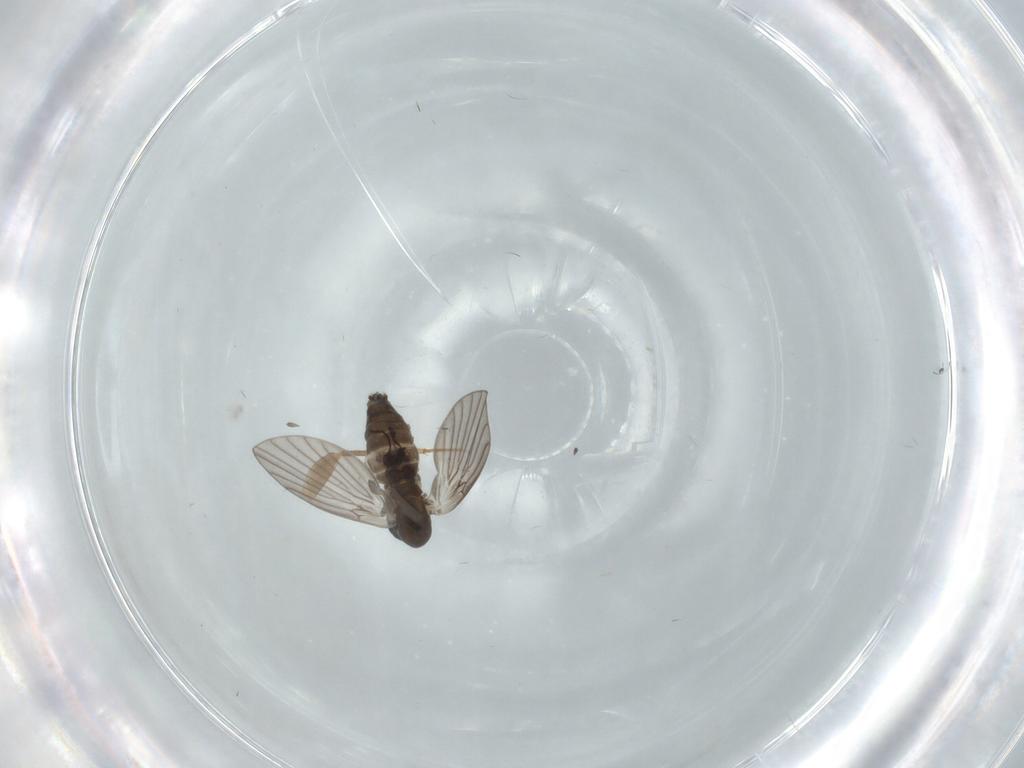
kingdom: Animalia
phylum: Arthropoda
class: Insecta
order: Diptera
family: Chironomidae
